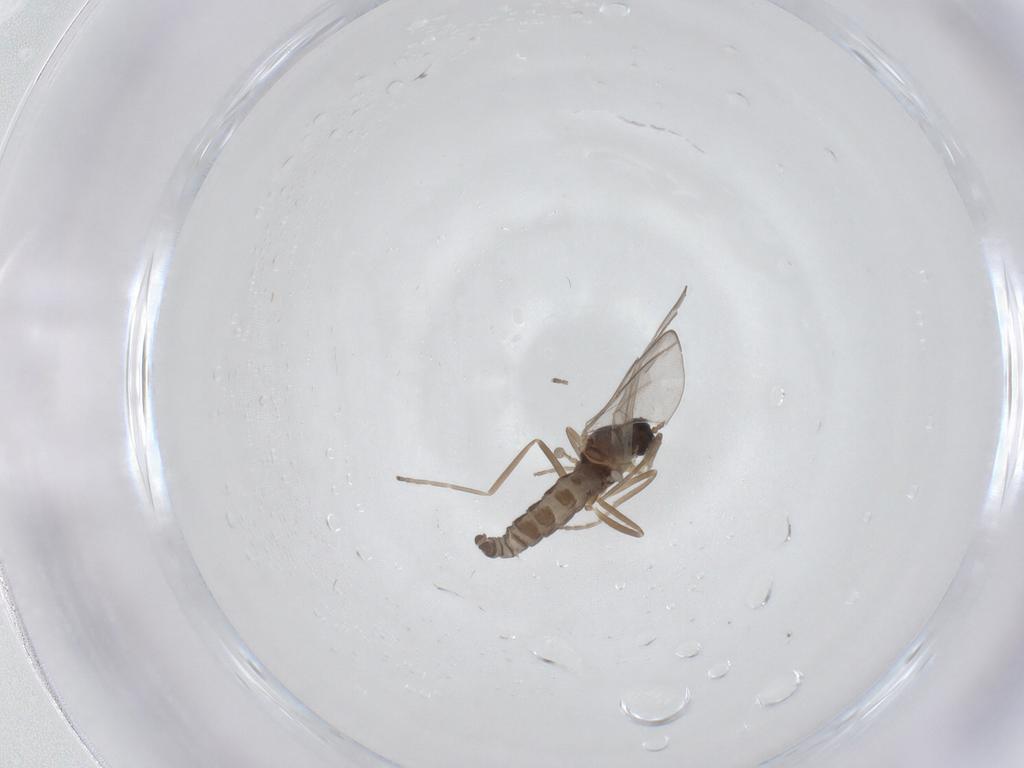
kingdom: Animalia
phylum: Arthropoda
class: Insecta
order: Diptera
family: Cecidomyiidae
